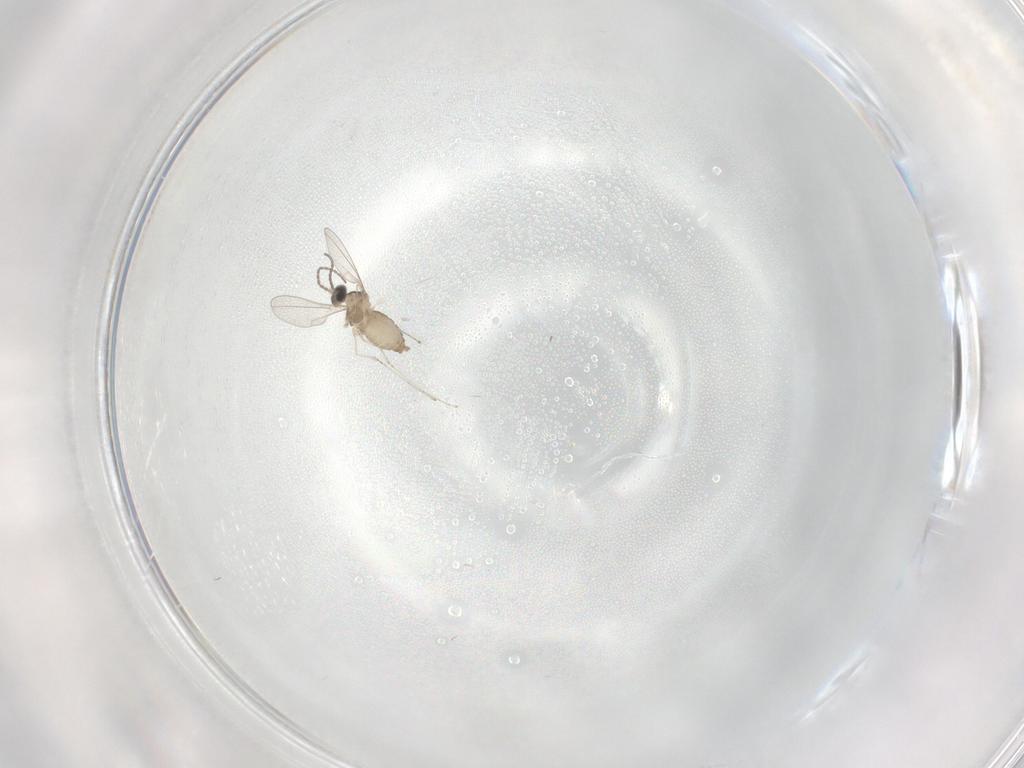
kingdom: Animalia
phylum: Arthropoda
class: Insecta
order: Diptera
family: Cecidomyiidae
